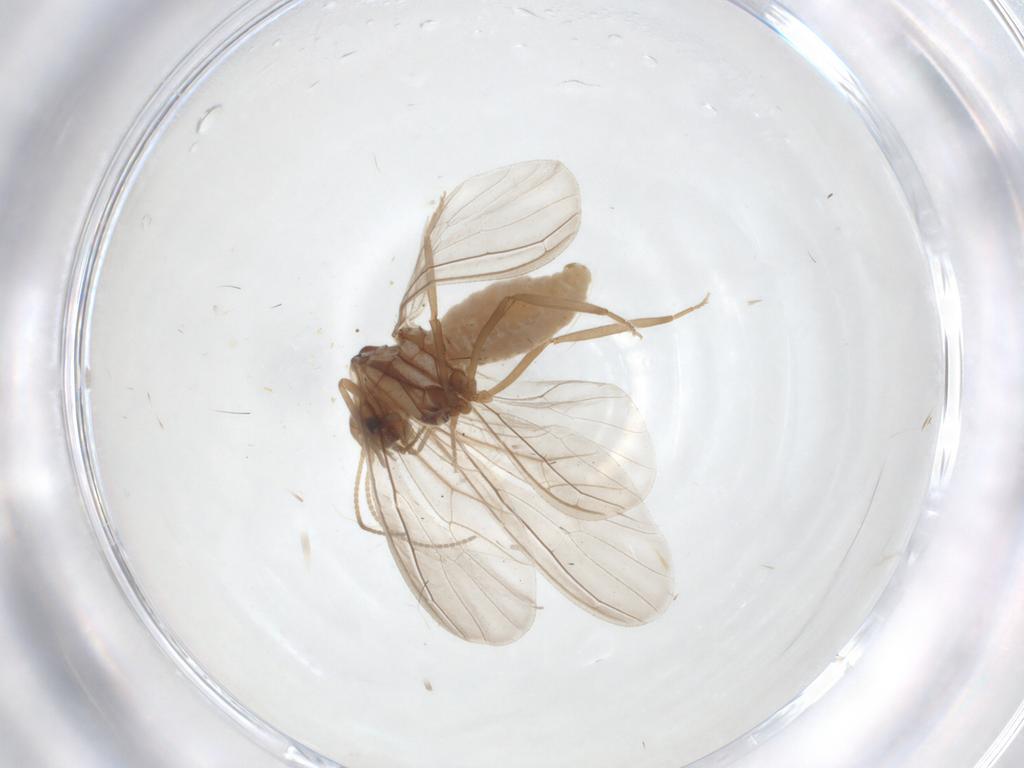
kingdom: Animalia
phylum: Arthropoda
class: Insecta
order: Neuroptera
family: Coniopterygidae
